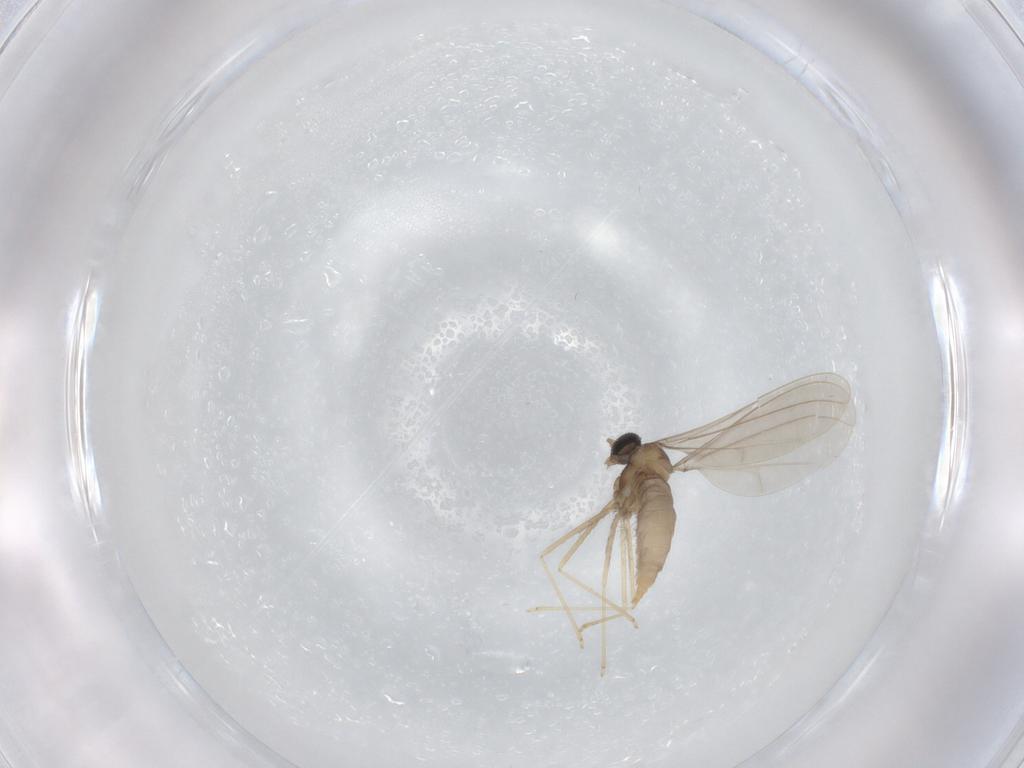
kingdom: Animalia
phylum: Arthropoda
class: Insecta
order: Diptera
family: Cecidomyiidae
